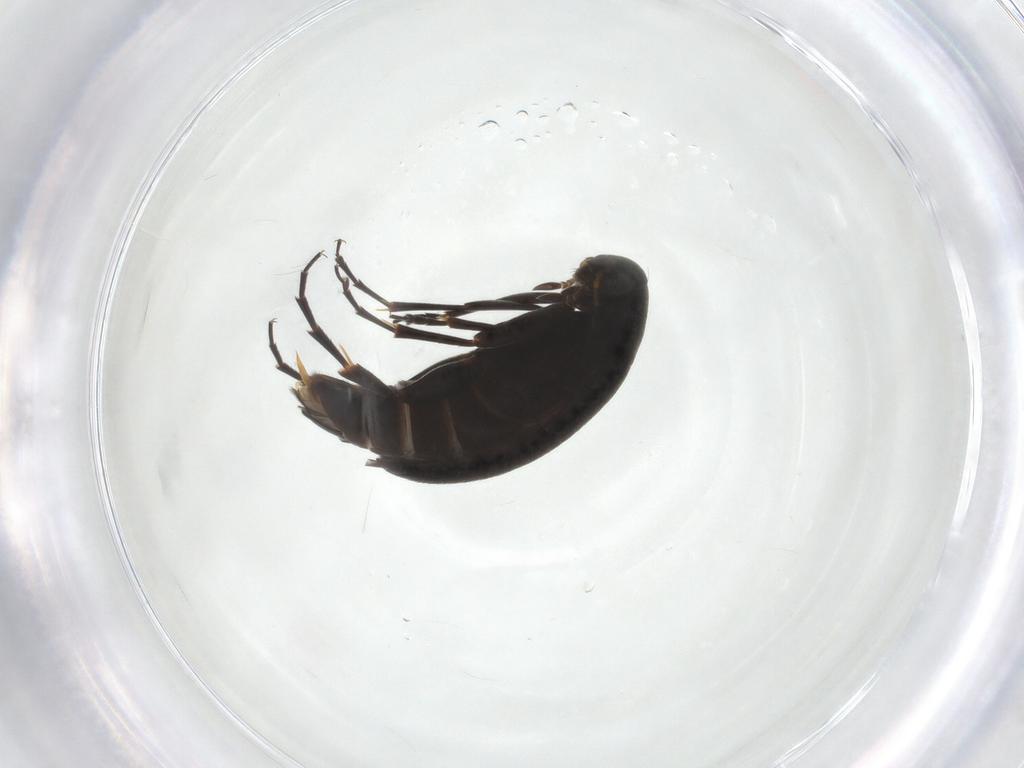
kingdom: Animalia
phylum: Arthropoda
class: Insecta
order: Coleoptera
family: Scraptiidae
